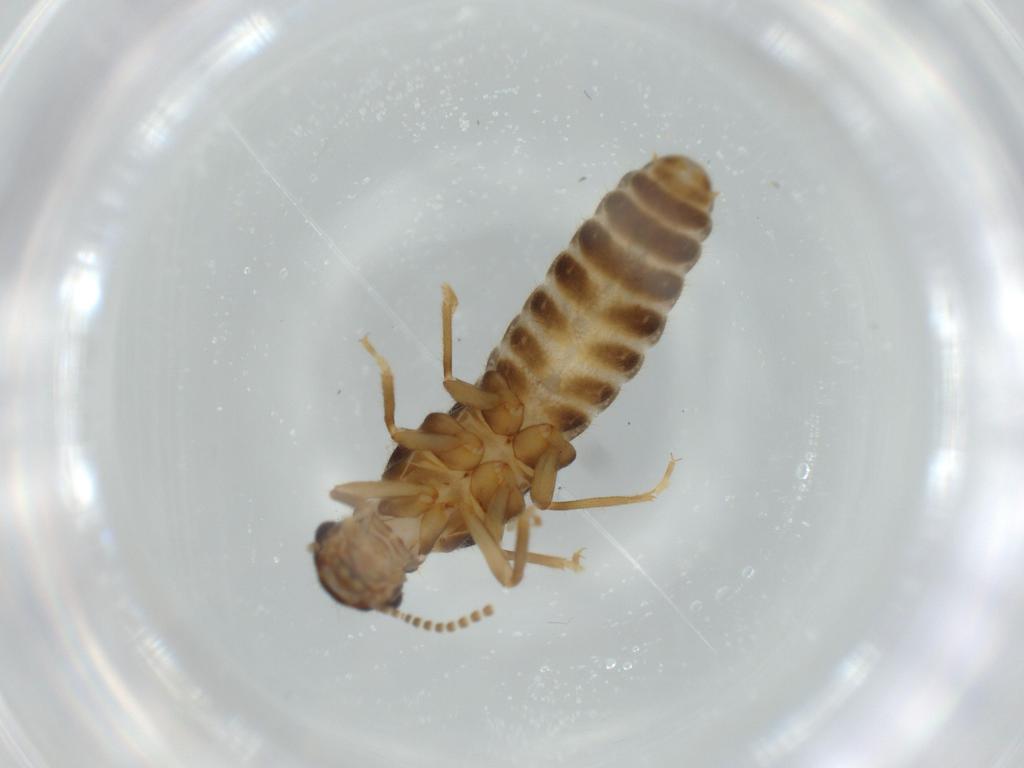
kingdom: Animalia
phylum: Arthropoda
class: Insecta
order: Blattodea
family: Termitidae
